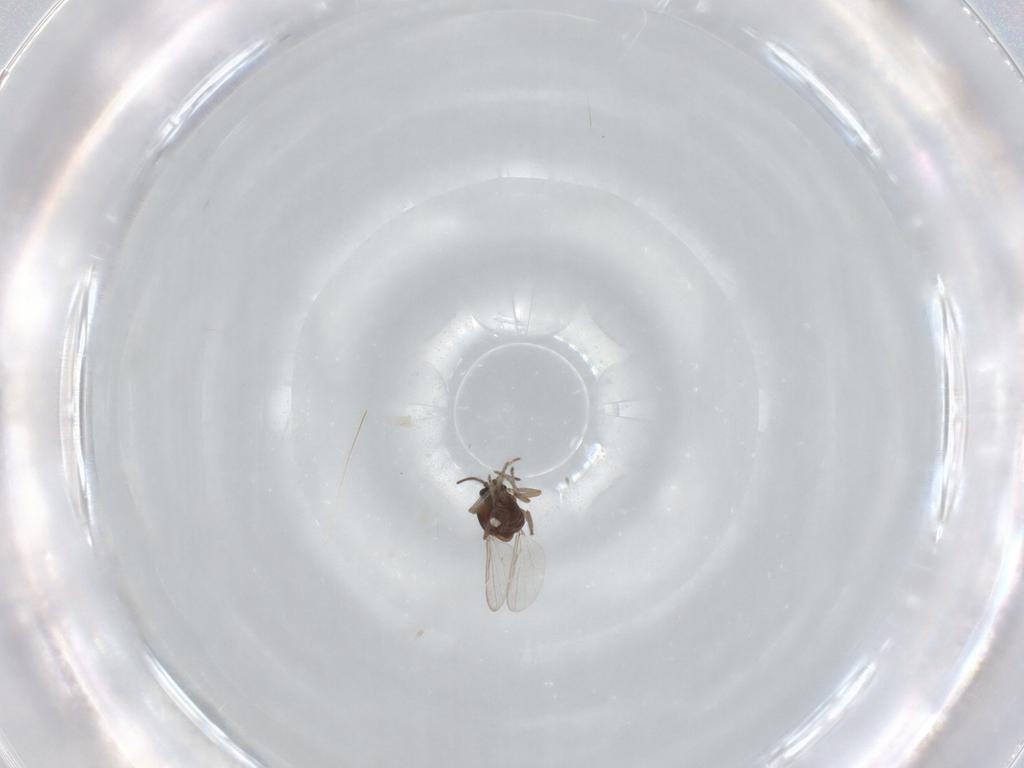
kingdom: Animalia
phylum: Arthropoda
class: Insecta
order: Diptera
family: Ceratopogonidae
